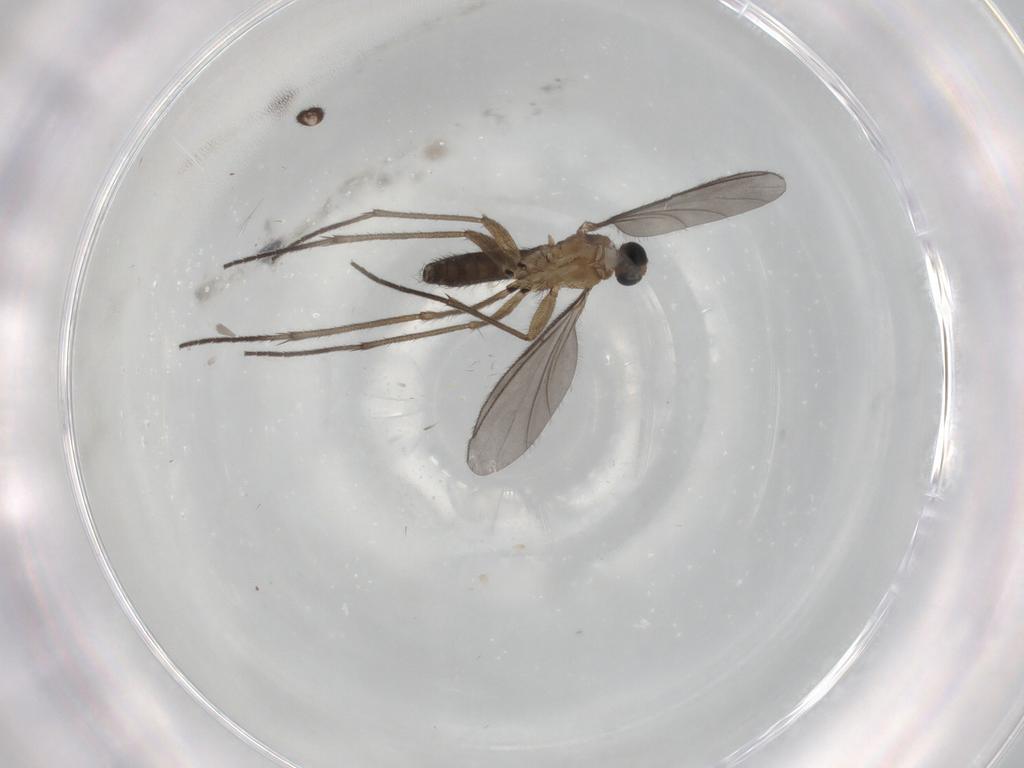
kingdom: Animalia
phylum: Arthropoda
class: Insecta
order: Diptera
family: Sciaridae
